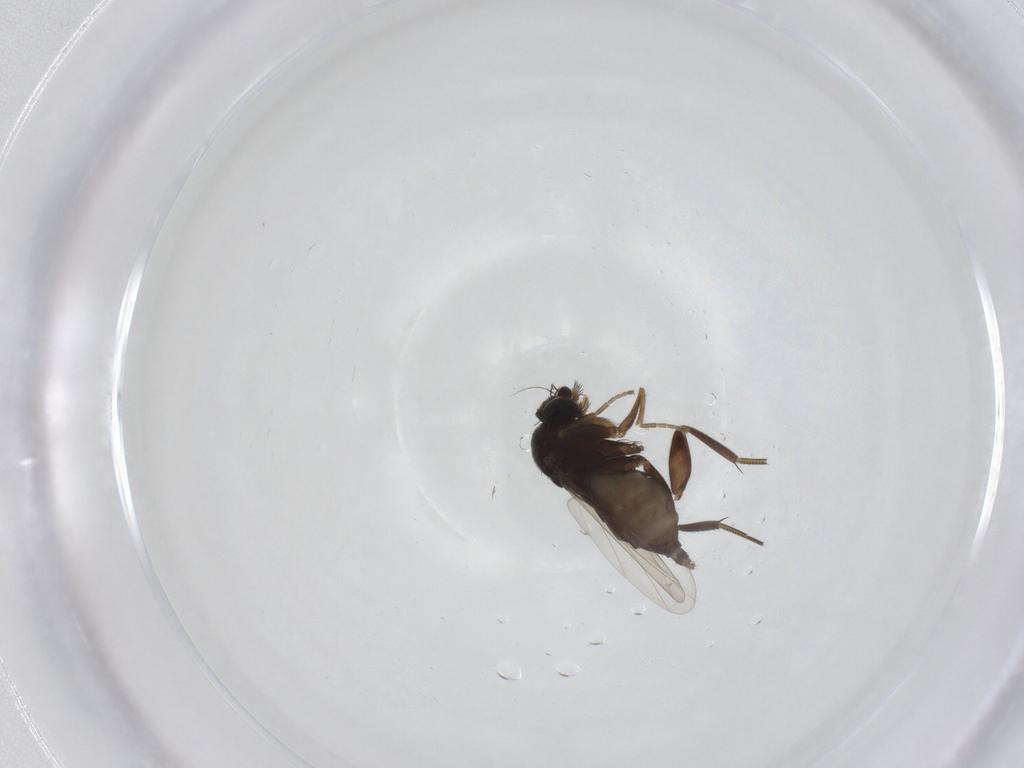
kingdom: Animalia
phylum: Arthropoda
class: Insecta
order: Diptera
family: Phoridae
